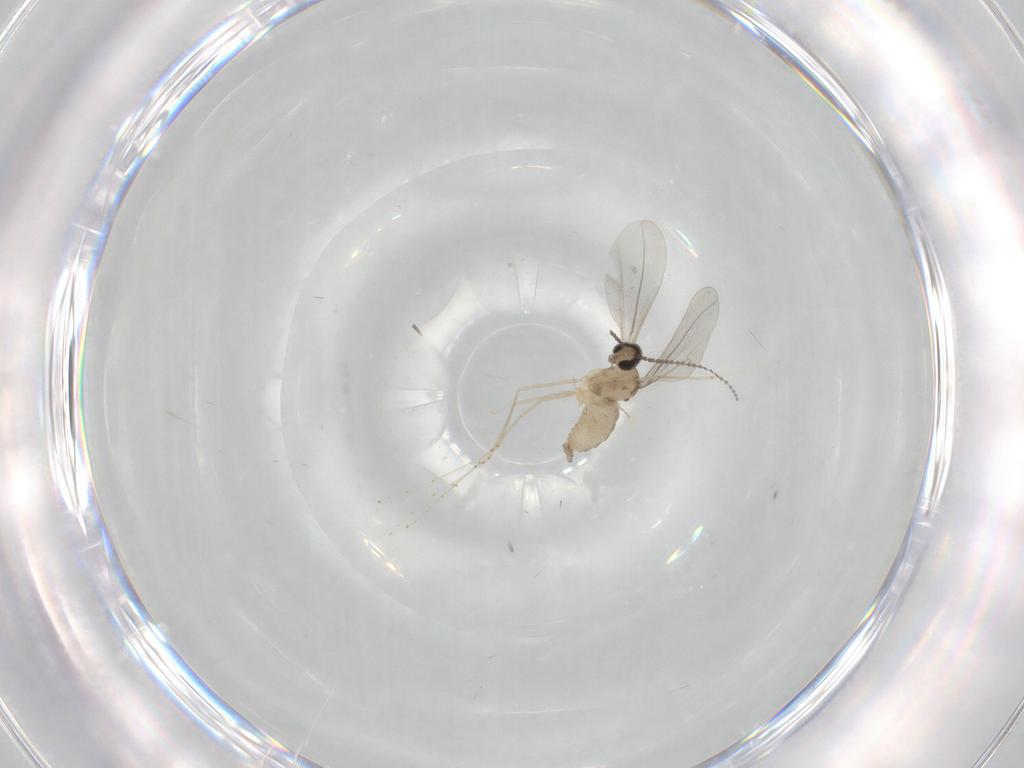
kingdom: Animalia
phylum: Arthropoda
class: Insecta
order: Diptera
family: Cecidomyiidae
